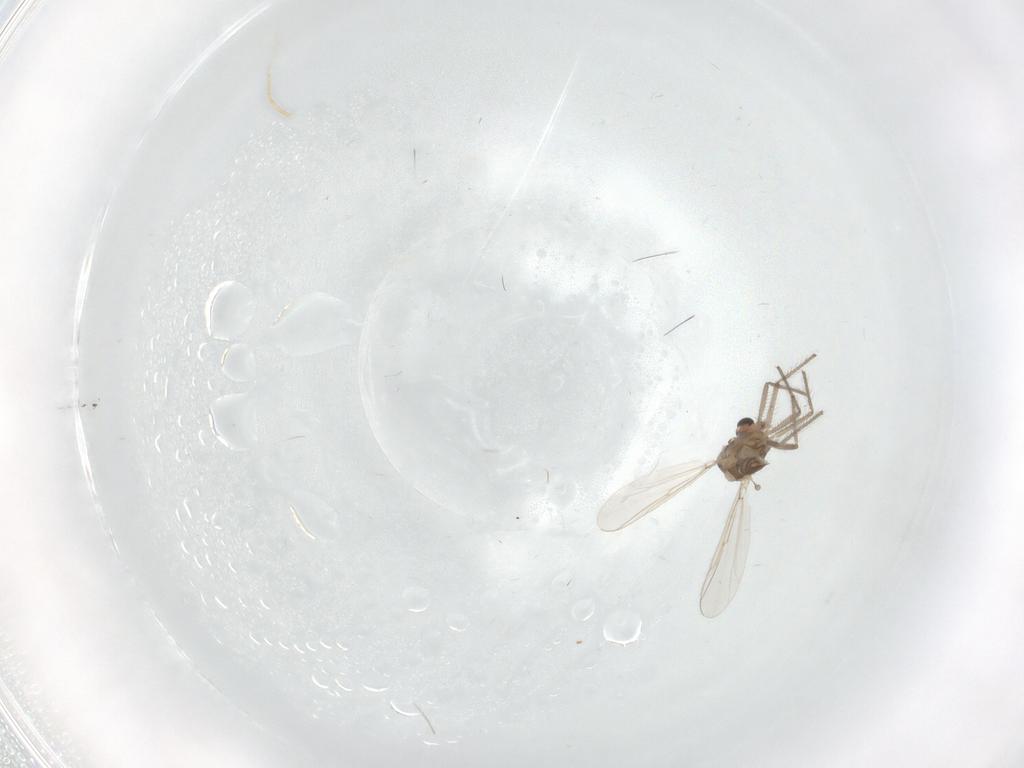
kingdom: Animalia
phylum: Arthropoda
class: Insecta
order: Diptera
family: Chironomidae
